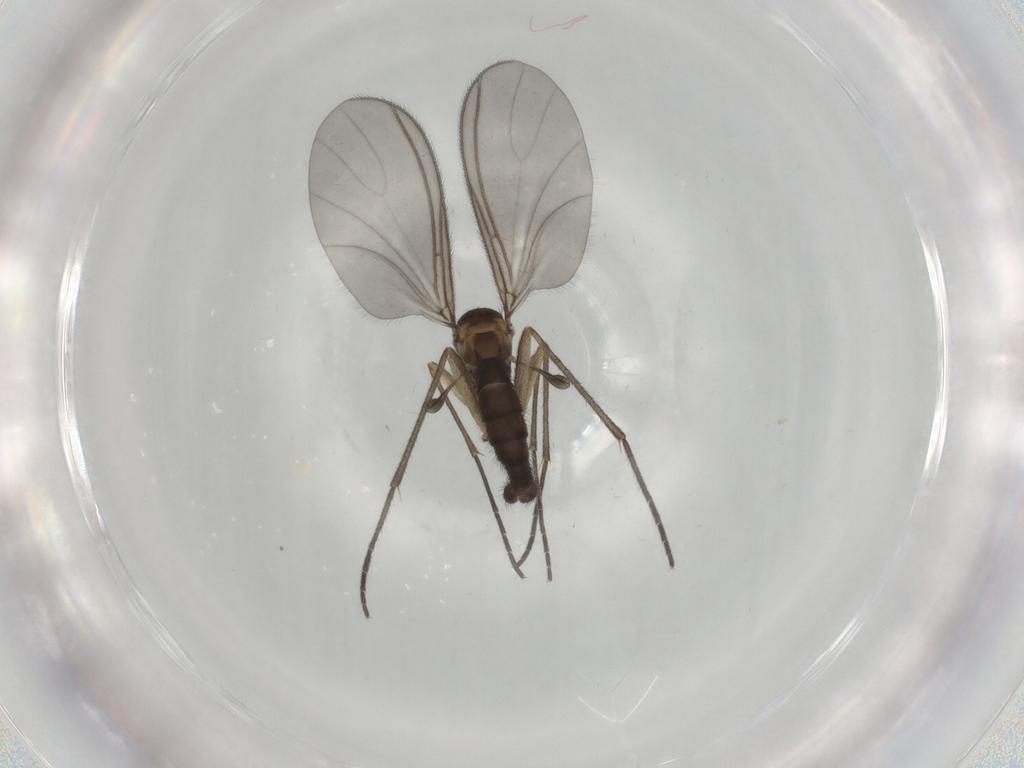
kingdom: Animalia
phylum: Arthropoda
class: Insecta
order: Diptera
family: Sciaridae
